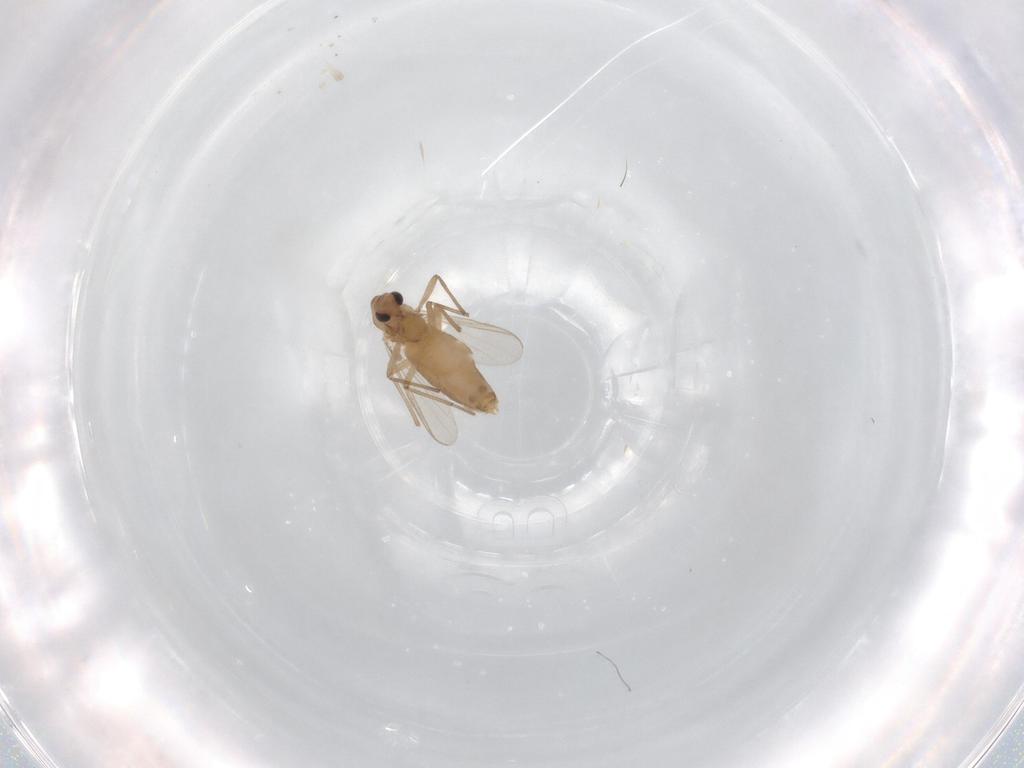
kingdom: Animalia
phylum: Arthropoda
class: Insecta
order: Diptera
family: Chironomidae
